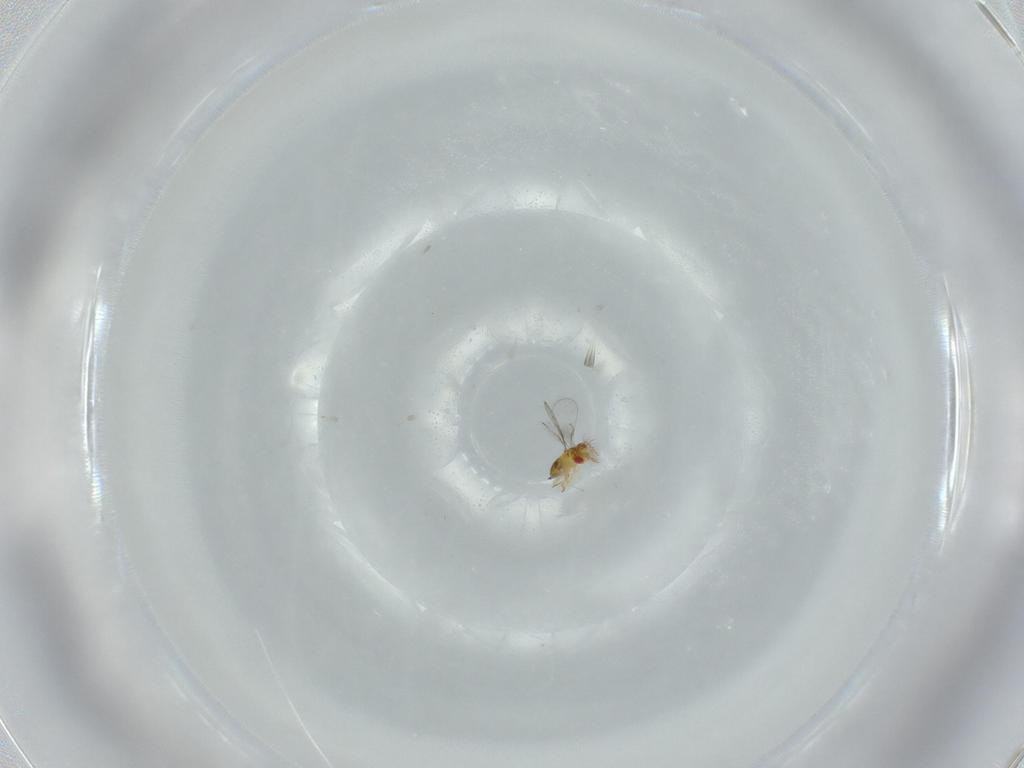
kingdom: Animalia
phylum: Arthropoda
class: Insecta
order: Hymenoptera
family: Trichogrammatidae
